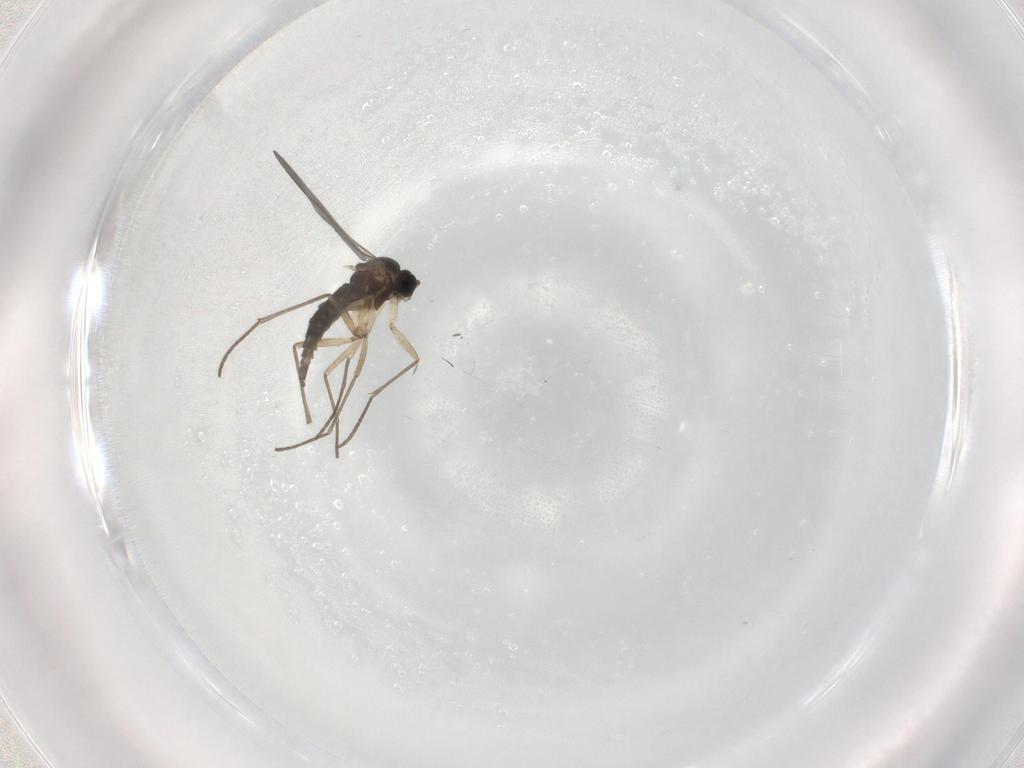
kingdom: Animalia
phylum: Arthropoda
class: Insecta
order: Diptera
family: Sciaridae
